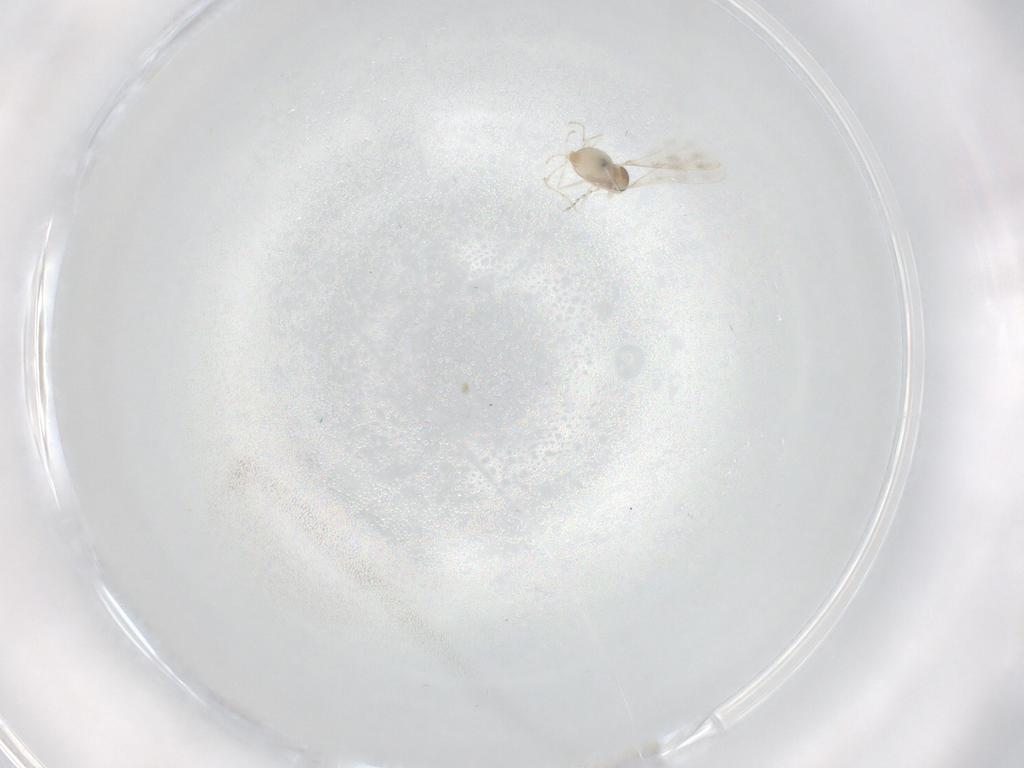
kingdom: Animalia
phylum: Arthropoda
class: Insecta
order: Diptera
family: Cecidomyiidae
